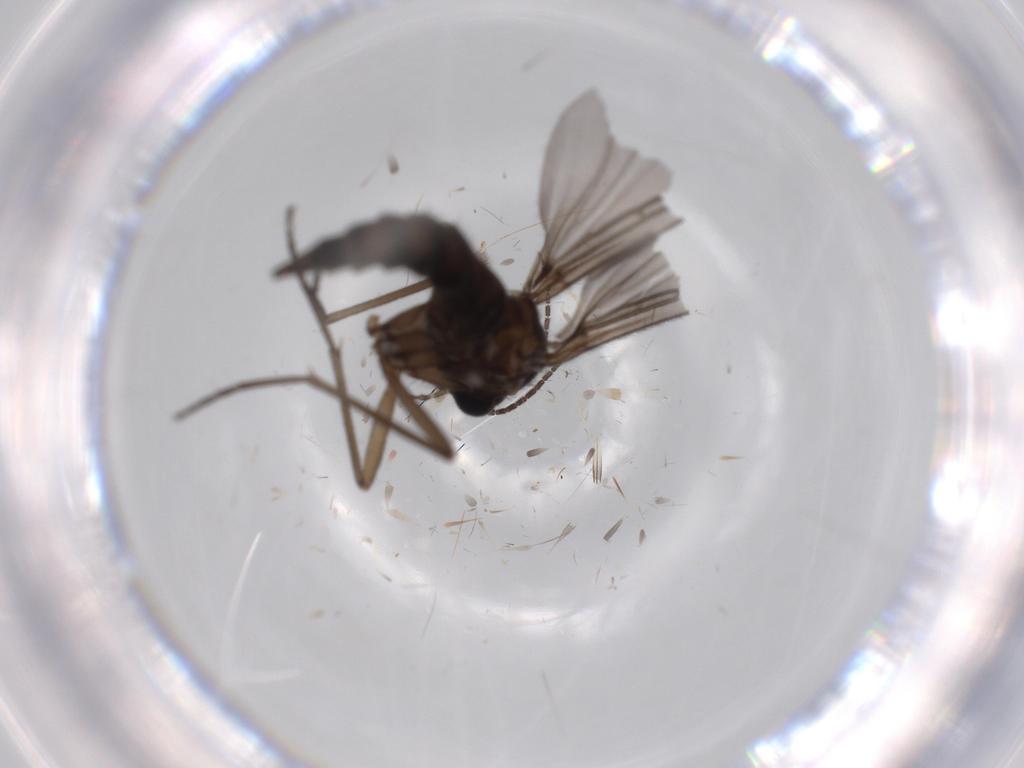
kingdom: Animalia
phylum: Arthropoda
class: Insecta
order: Diptera
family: Sciaridae
